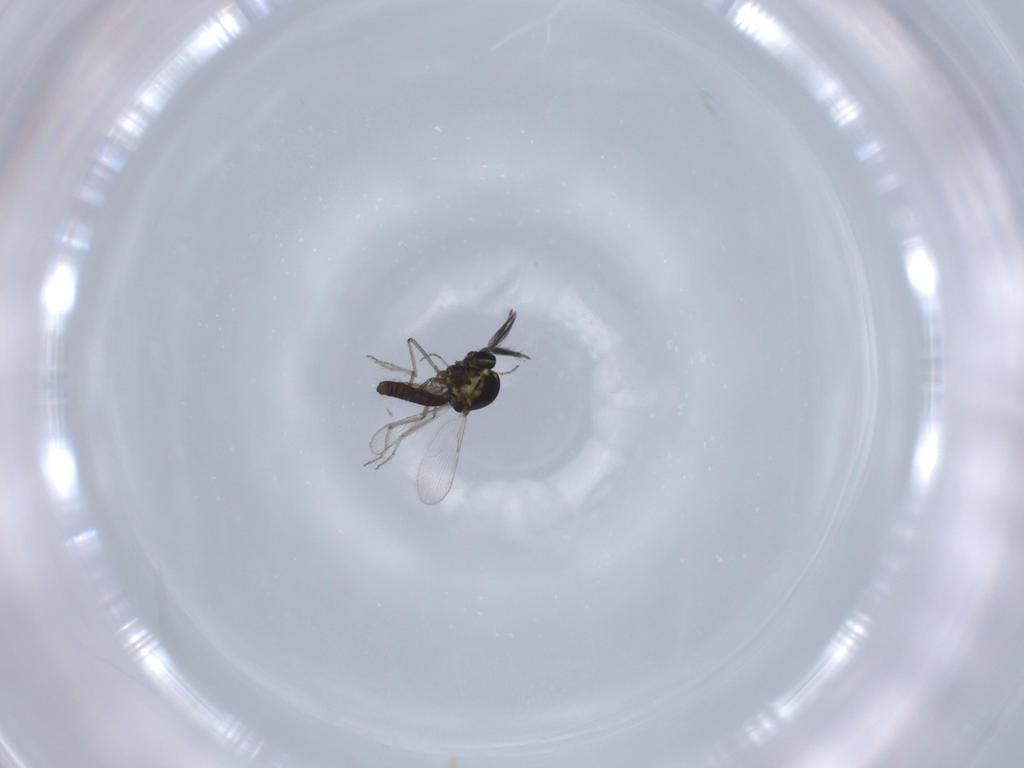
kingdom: Animalia
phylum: Arthropoda
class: Insecta
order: Diptera
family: Ceratopogonidae
